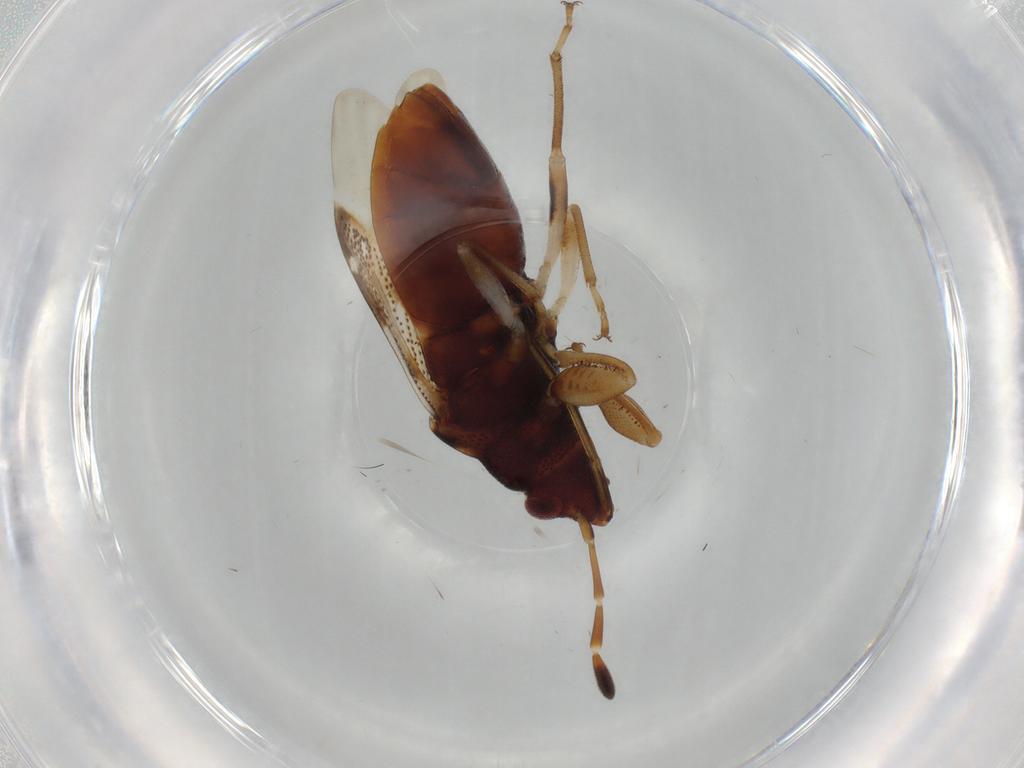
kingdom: Animalia
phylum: Arthropoda
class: Insecta
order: Hemiptera
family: Rhyparochromidae
